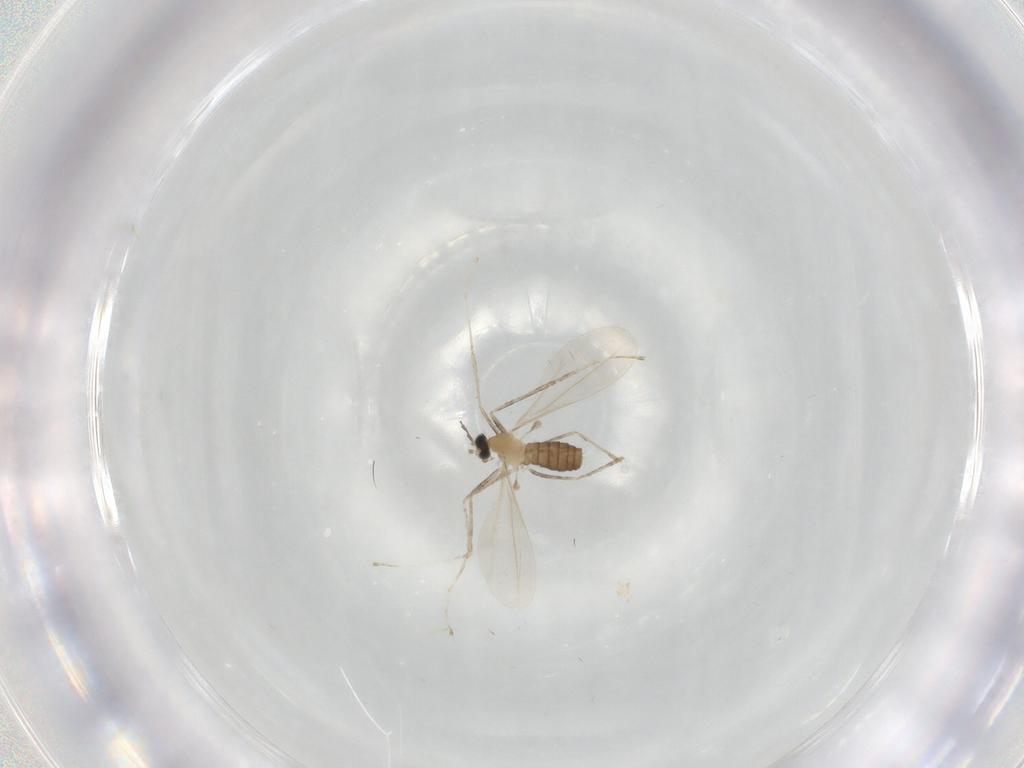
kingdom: Animalia
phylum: Arthropoda
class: Insecta
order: Diptera
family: Cecidomyiidae
